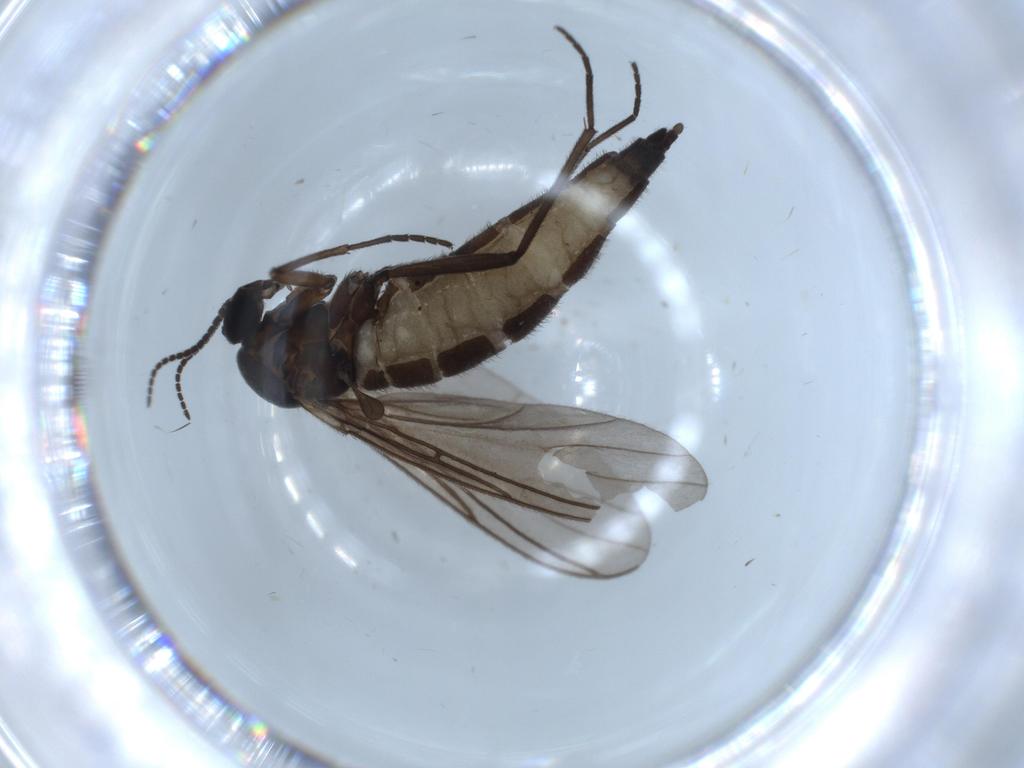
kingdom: Animalia
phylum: Arthropoda
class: Insecta
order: Diptera
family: Sciaridae
